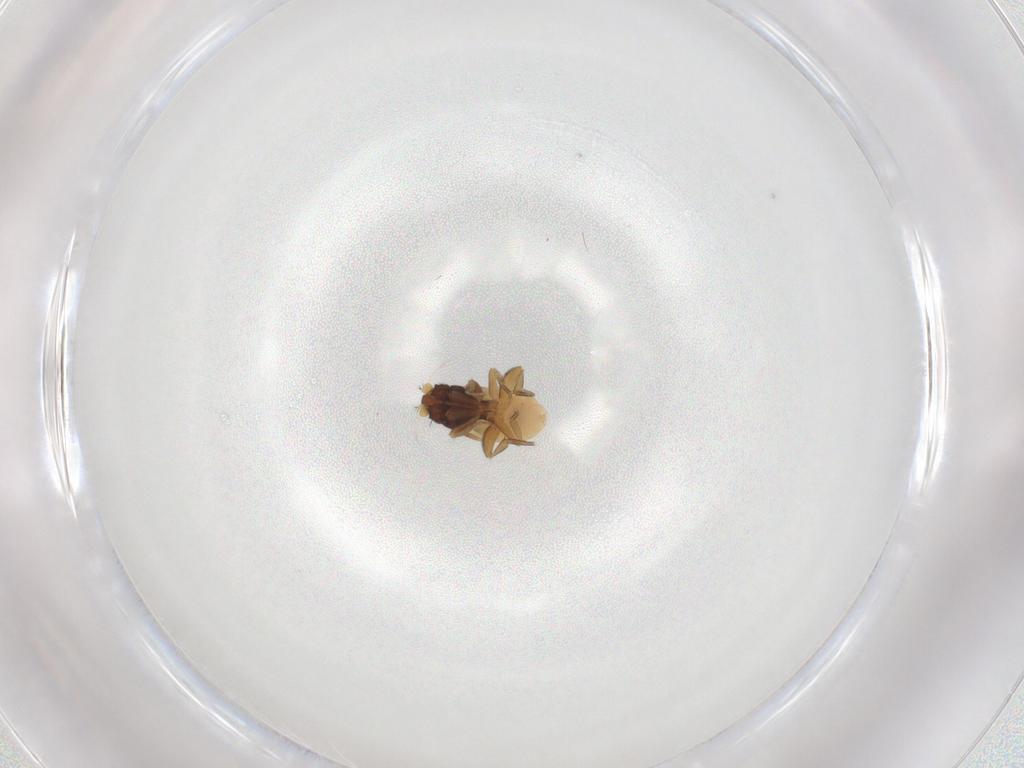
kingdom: Animalia
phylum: Arthropoda
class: Insecta
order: Diptera
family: Phoridae
